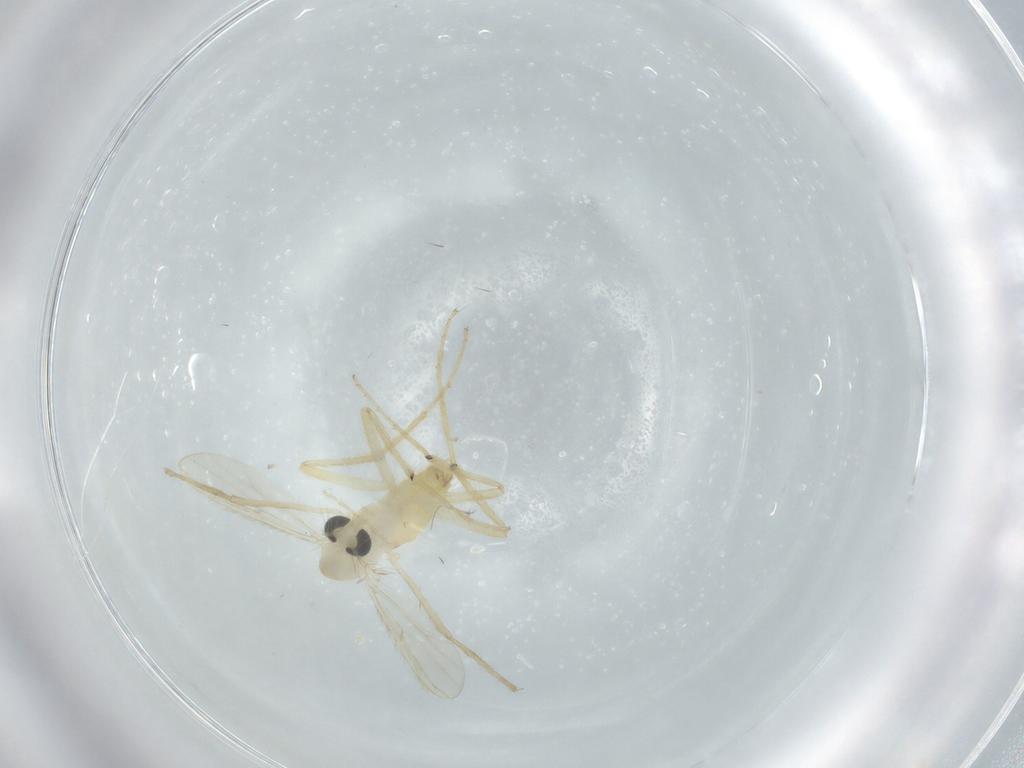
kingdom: Animalia
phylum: Arthropoda
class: Insecta
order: Diptera
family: Chironomidae
